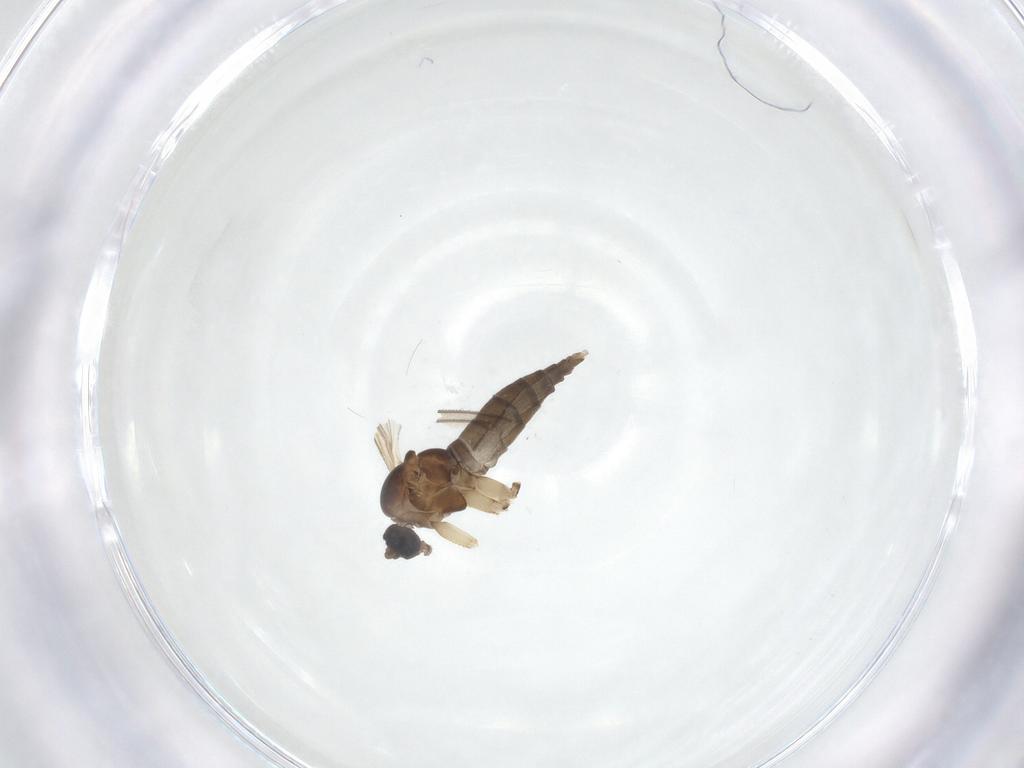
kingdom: Animalia
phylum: Arthropoda
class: Insecta
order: Diptera
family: Sciaridae
